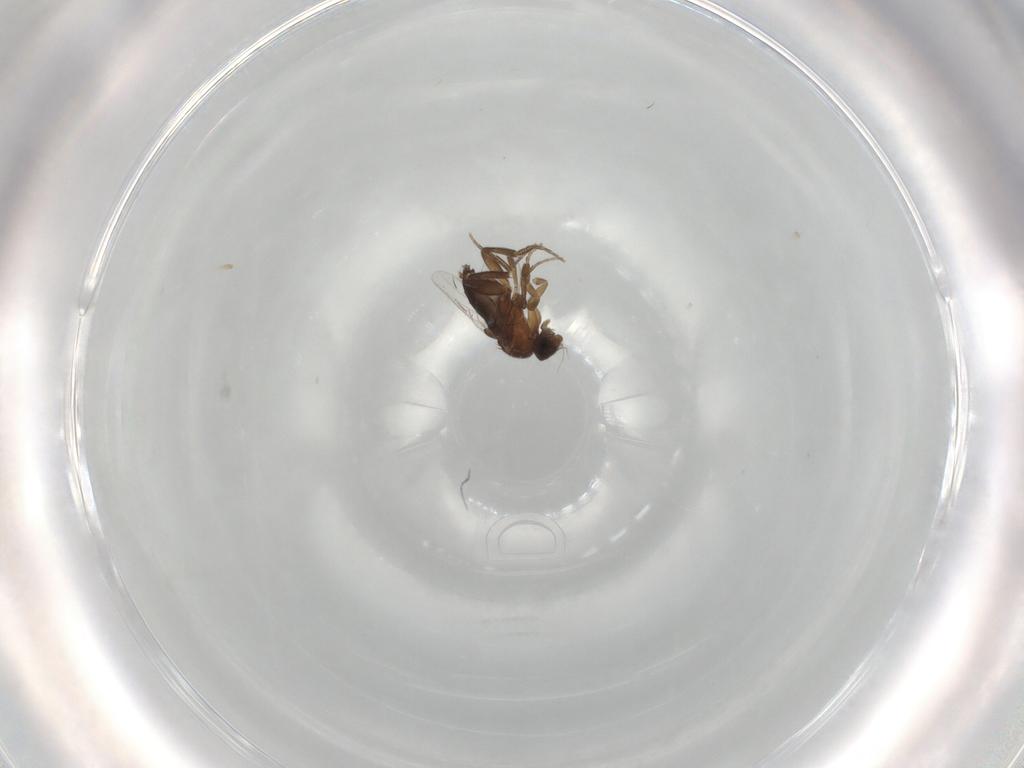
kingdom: Animalia
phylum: Arthropoda
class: Insecta
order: Diptera
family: Phoridae
